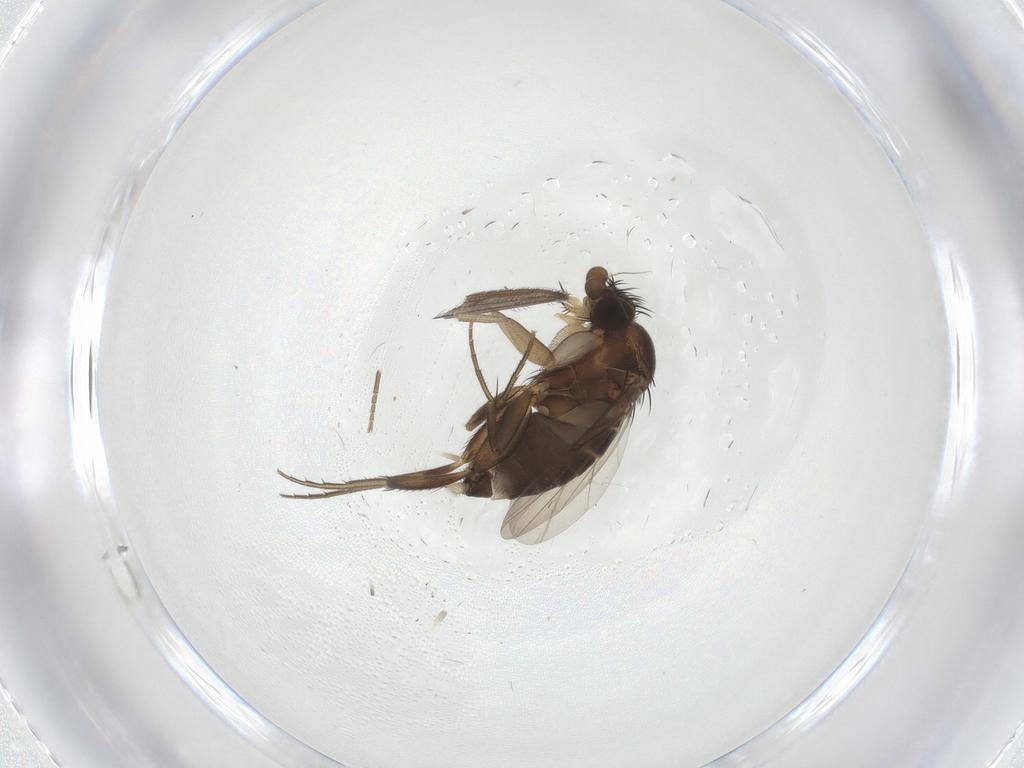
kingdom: Animalia
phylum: Arthropoda
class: Insecta
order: Diptera
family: Phoridae
